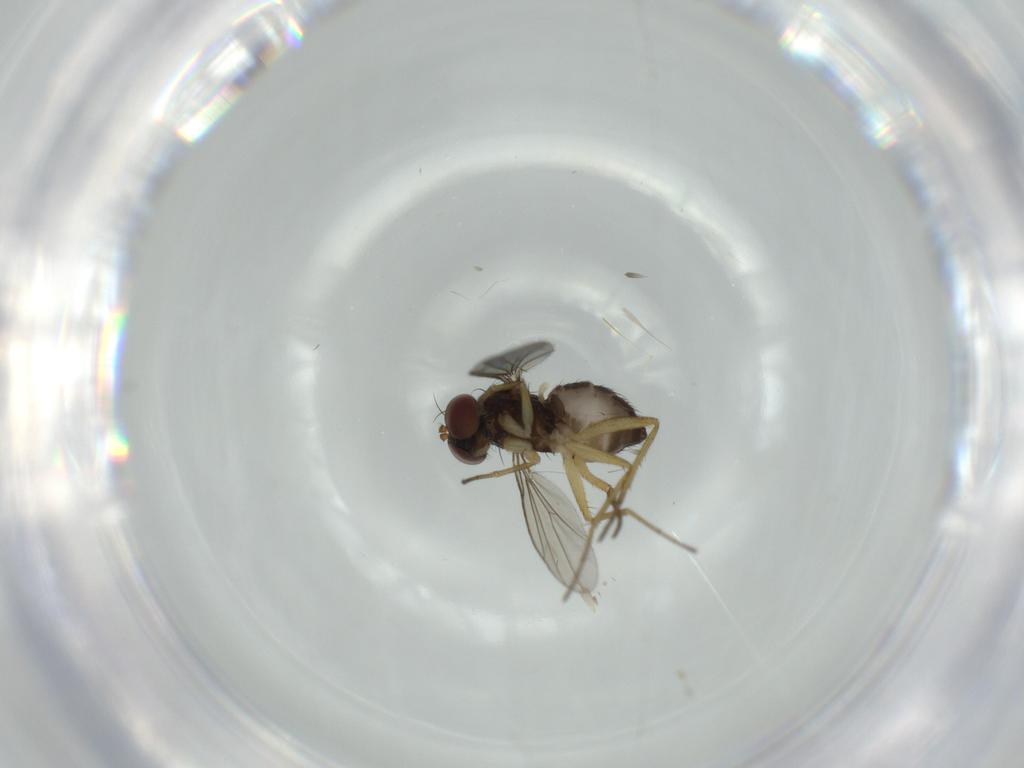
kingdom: Animalia
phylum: Arthropoda
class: Insecta
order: Diptera
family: Dolichopodidae
